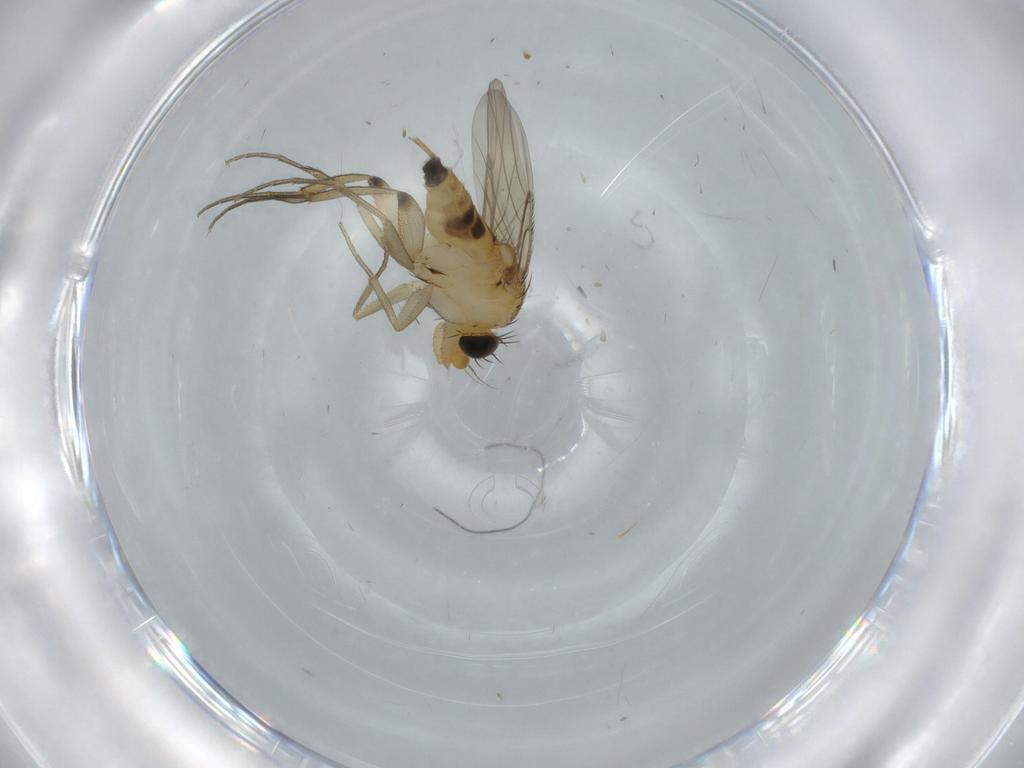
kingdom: Animalia
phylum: Arthropoda
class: Insecta
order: Diptera
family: Phoridae
